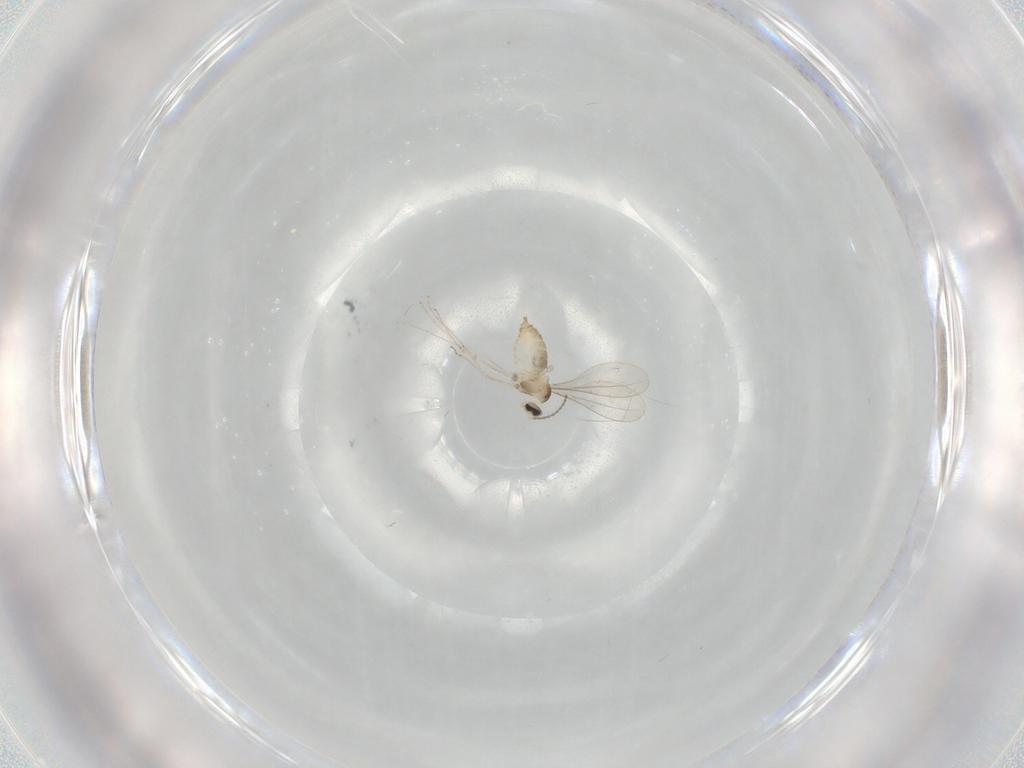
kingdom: Animalia
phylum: Arthropoda
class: Insecta
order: Diptera
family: Cecidomyiidae
